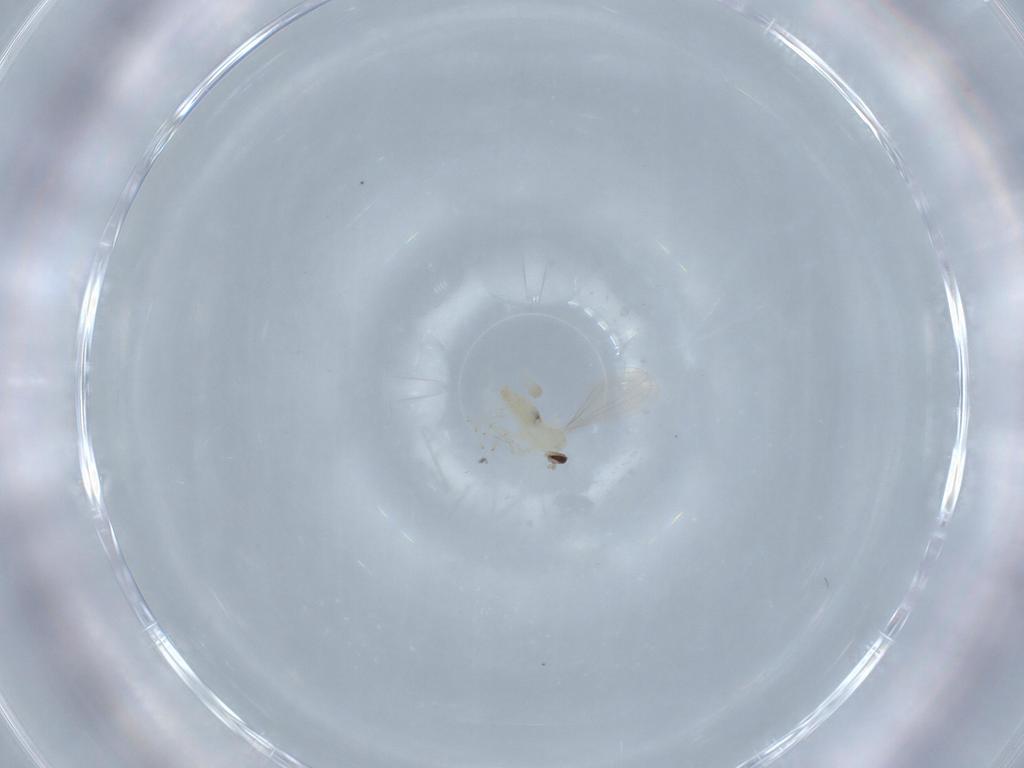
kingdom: Animalia
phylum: Arthropoda
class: Insecta
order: Diptera
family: Cecidomyiidae
